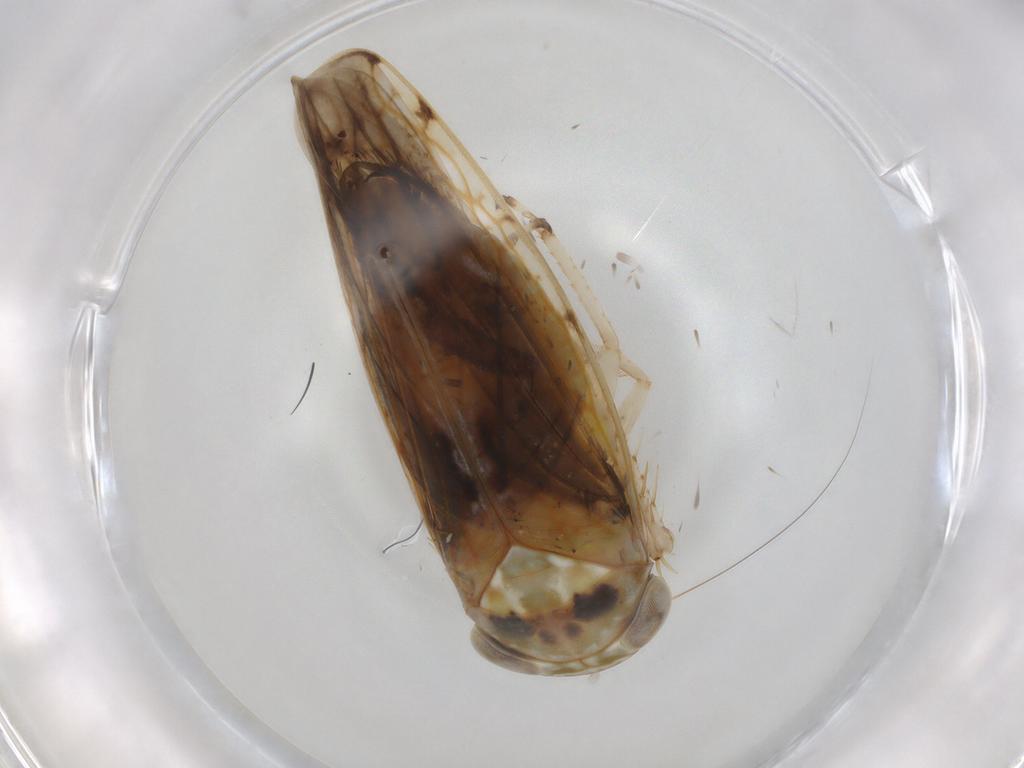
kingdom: Animalia
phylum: Arthropoda
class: Insecta
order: Hemiptera
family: Cicadellidae
